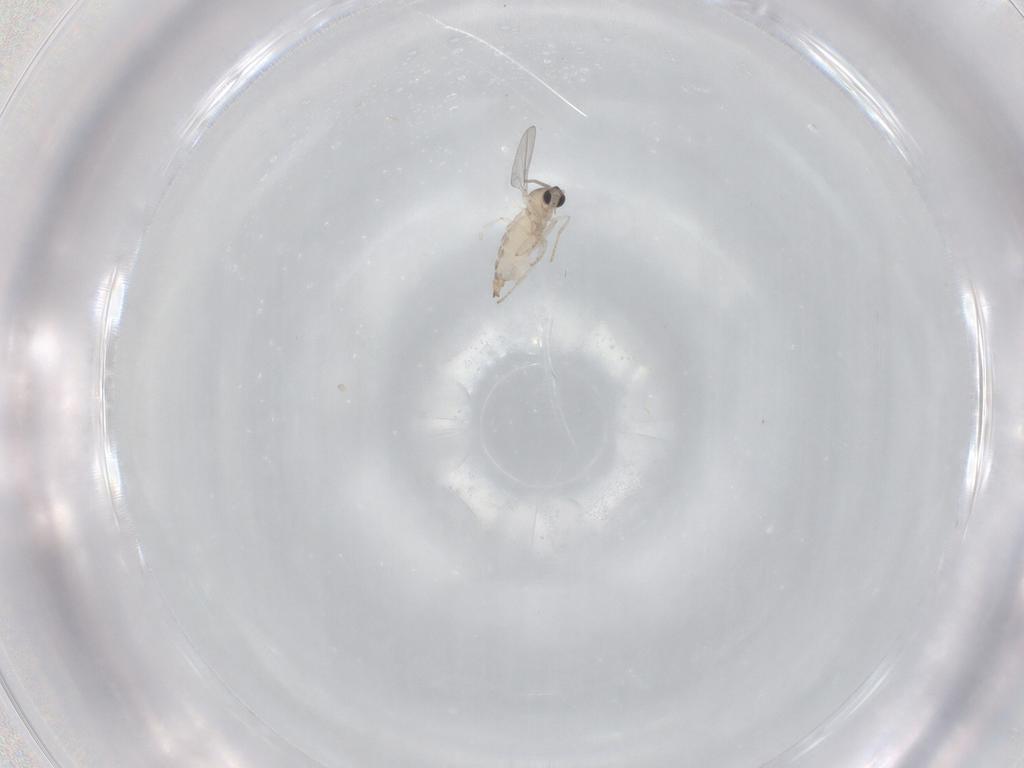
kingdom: Animalia
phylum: Arthropoda
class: Insecta
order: Diptera
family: Cecidomyiidae
